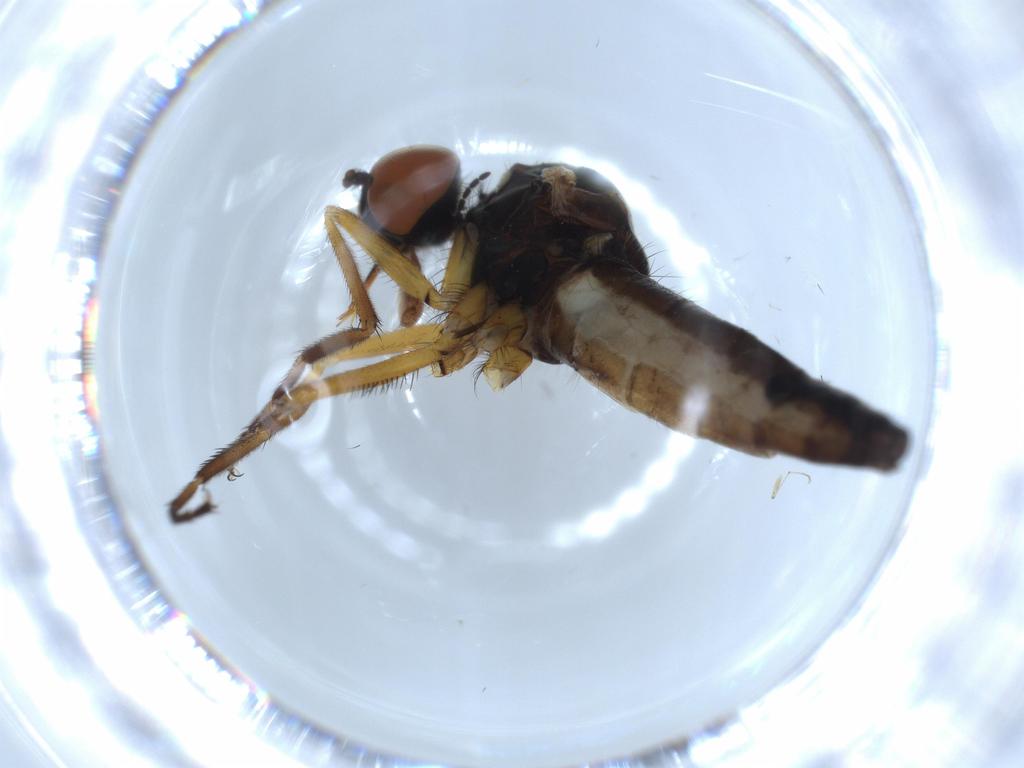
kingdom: Animalia
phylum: Arthropoda
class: Insecta
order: Diptera
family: Empididae
